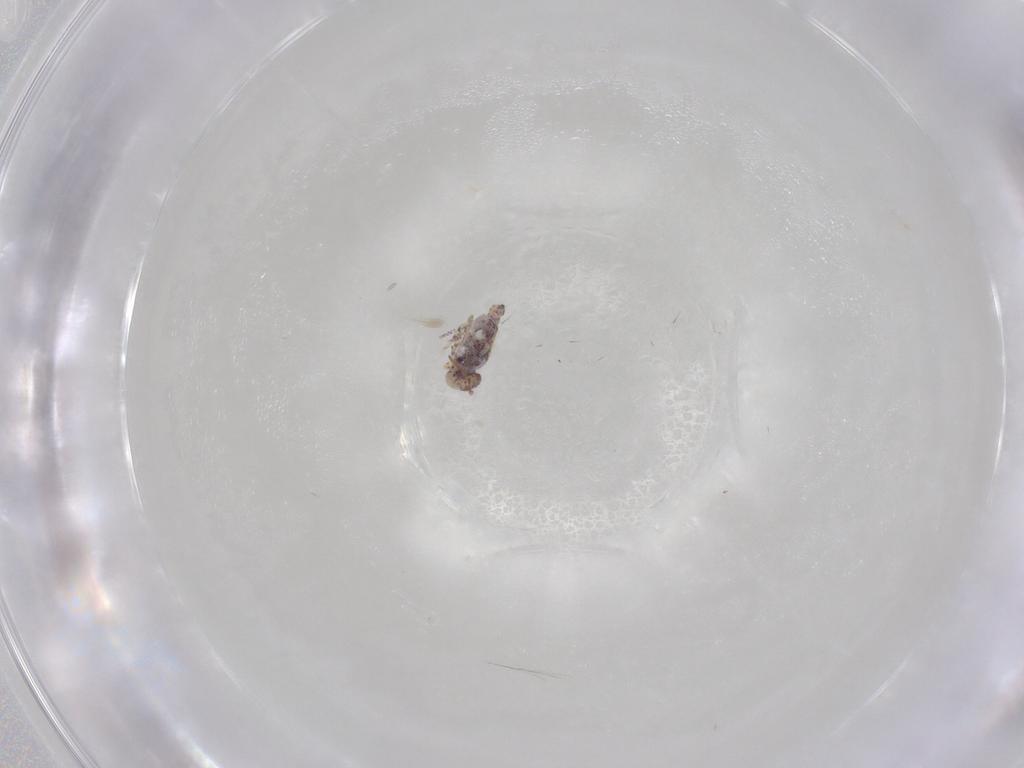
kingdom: Animalia
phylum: Arthropoda
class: Collembola
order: Symphypleona
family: Bourletiellidae
